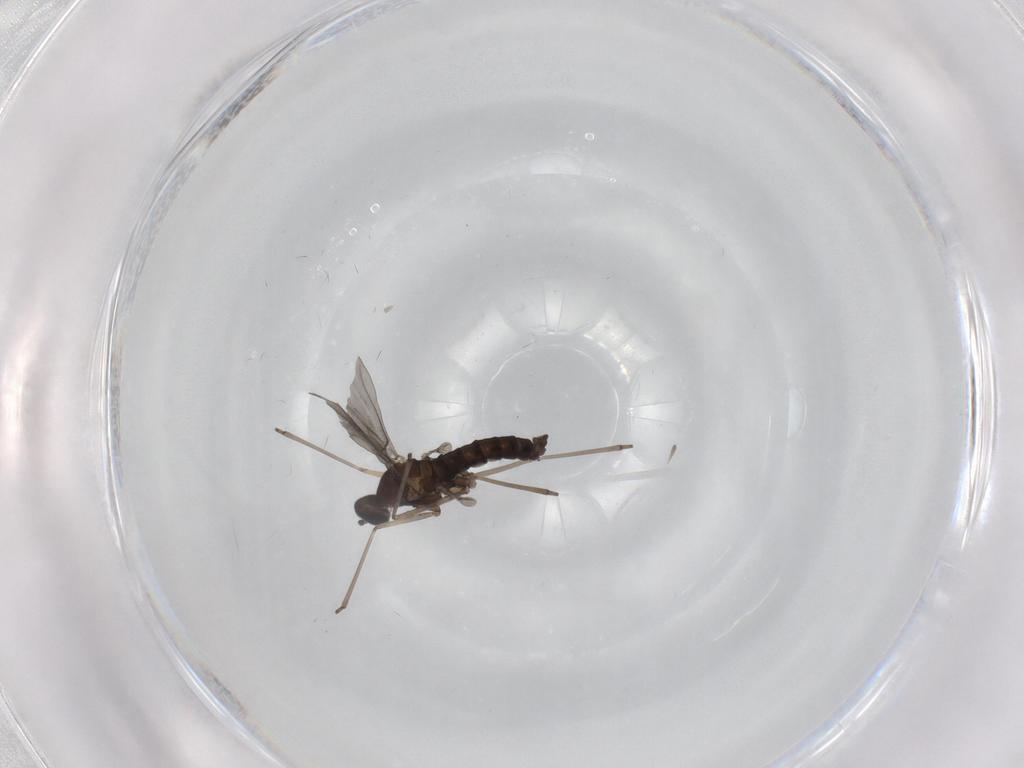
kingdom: Animalia
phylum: Arthropoda
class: Insecta
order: Diptera
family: Cecidomyiidae
